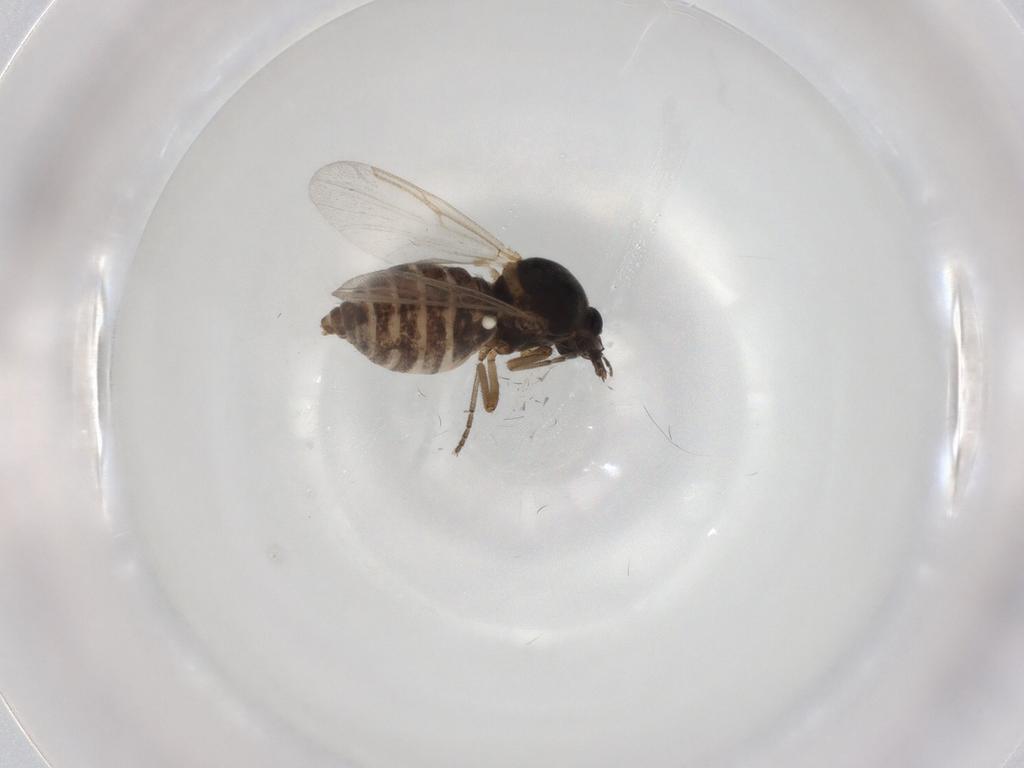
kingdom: Animalia
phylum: Arthropoda
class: Insecta
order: Diptera
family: Ceratopogonidae
